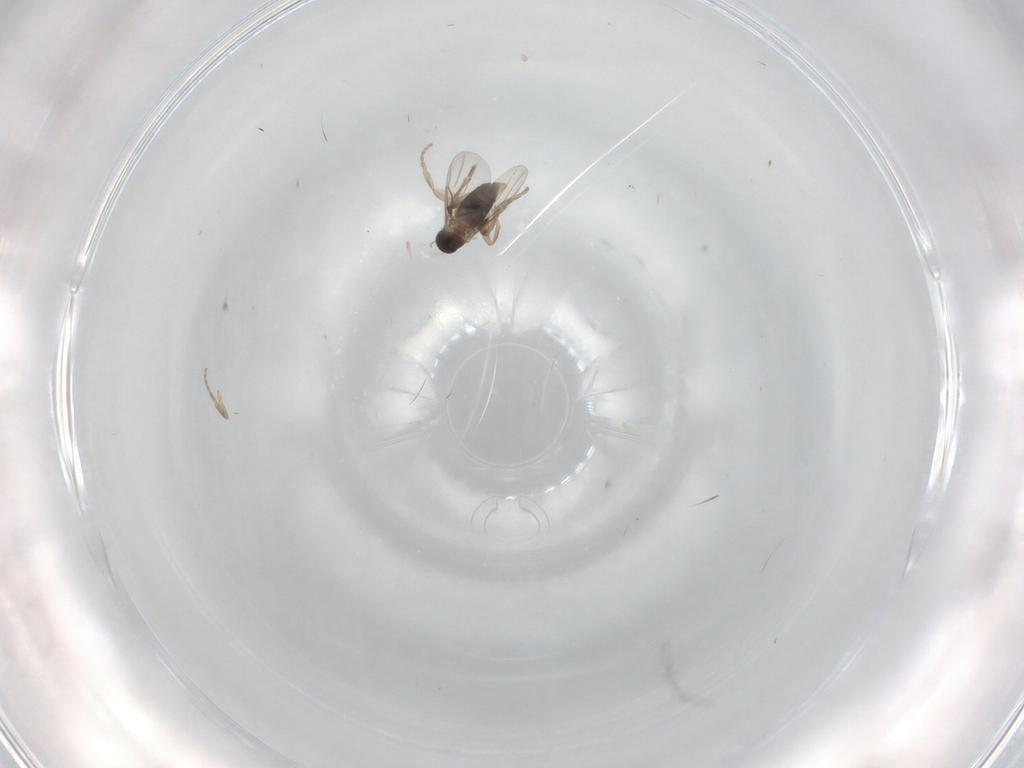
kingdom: Animalia
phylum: Arthropoda
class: Insecta
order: Diptera
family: Phoridae
